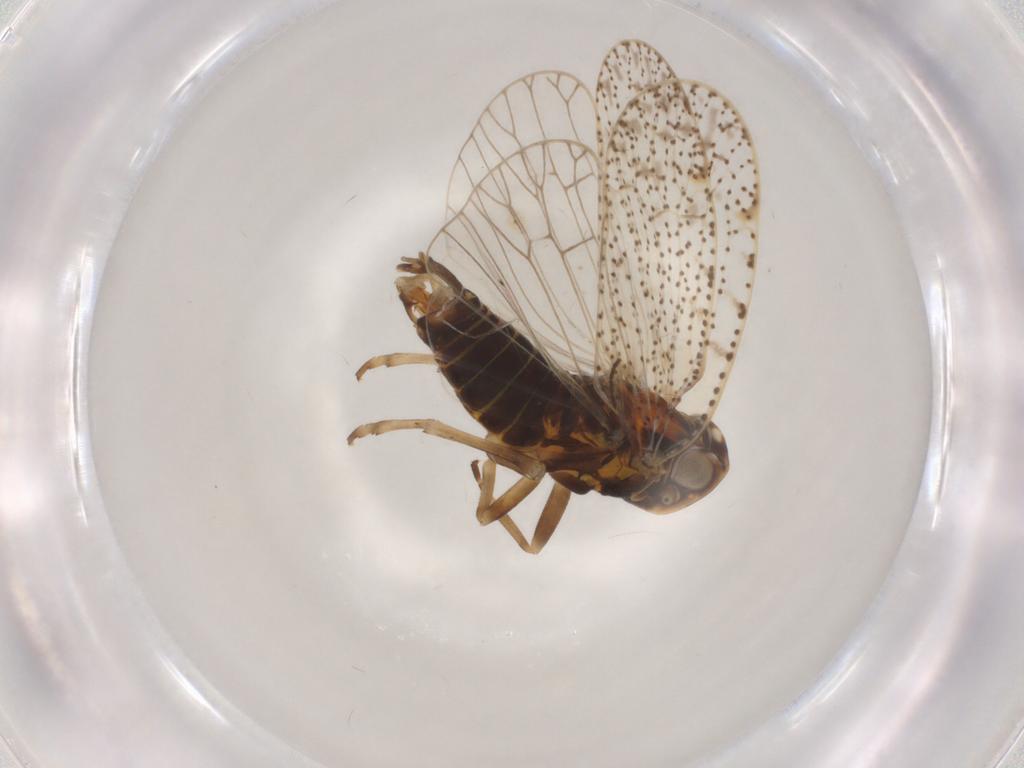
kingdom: Animalia
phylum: Arthropoda
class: Insecta
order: Hemiptera
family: Cixiidae
